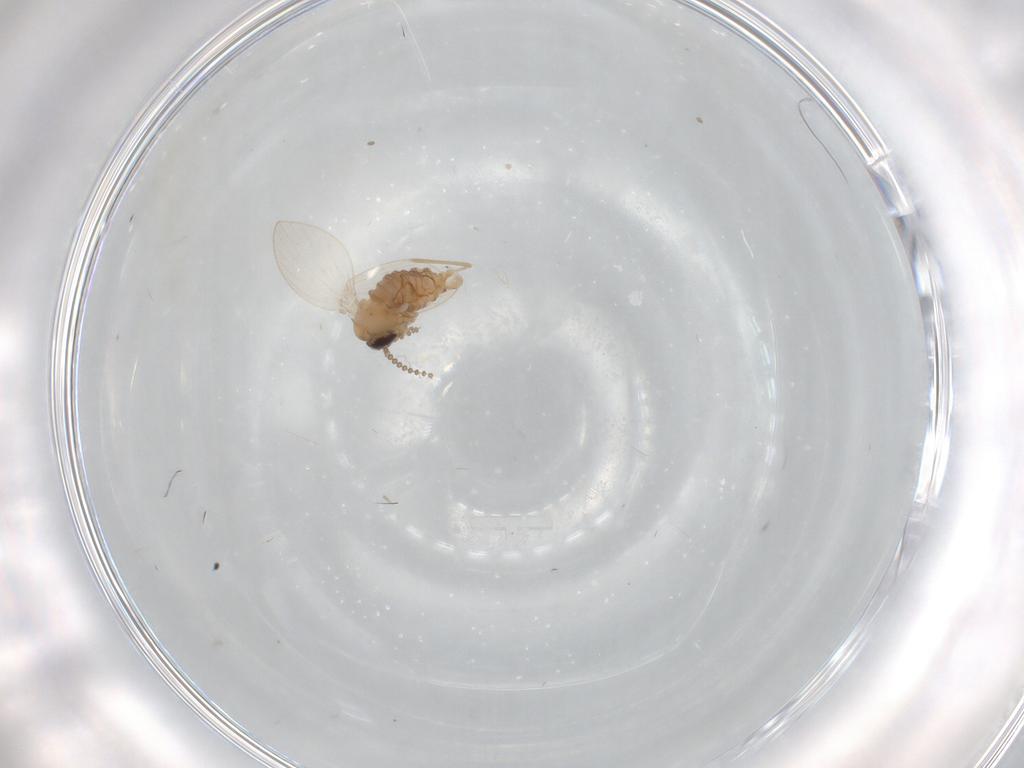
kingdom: Animalia
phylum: Arthropoda
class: Insecta
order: Diptera
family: Psychodidae
